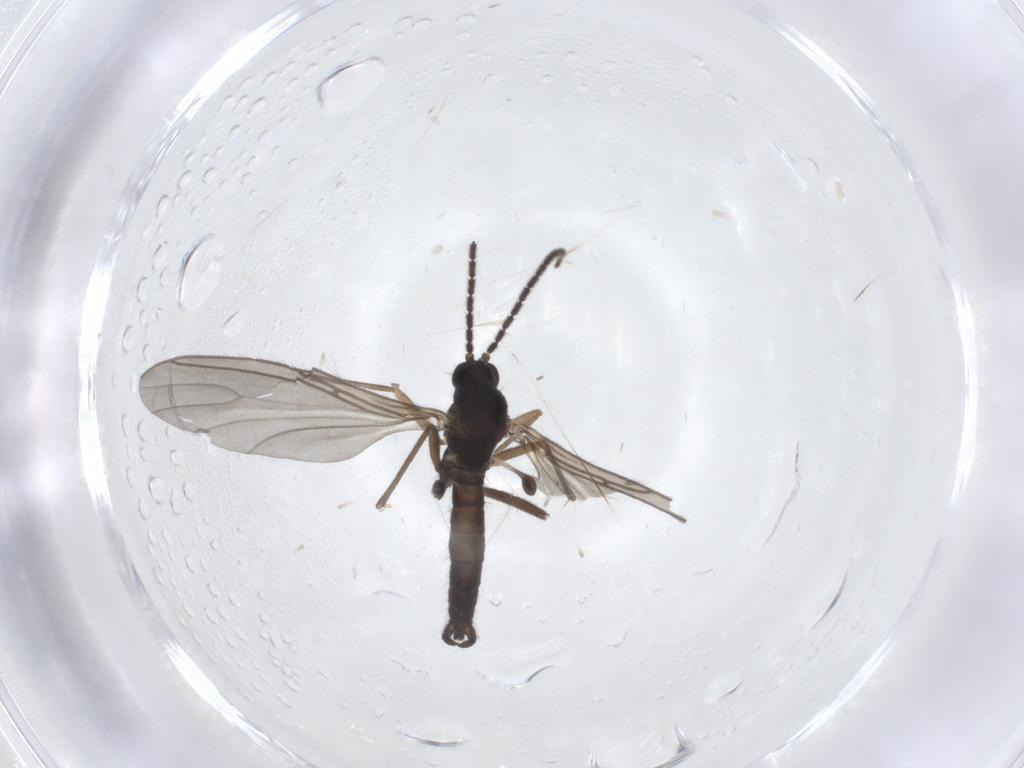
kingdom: Animalia
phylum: Arthropoda
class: Insecta
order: Diptera
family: Sciaridae
